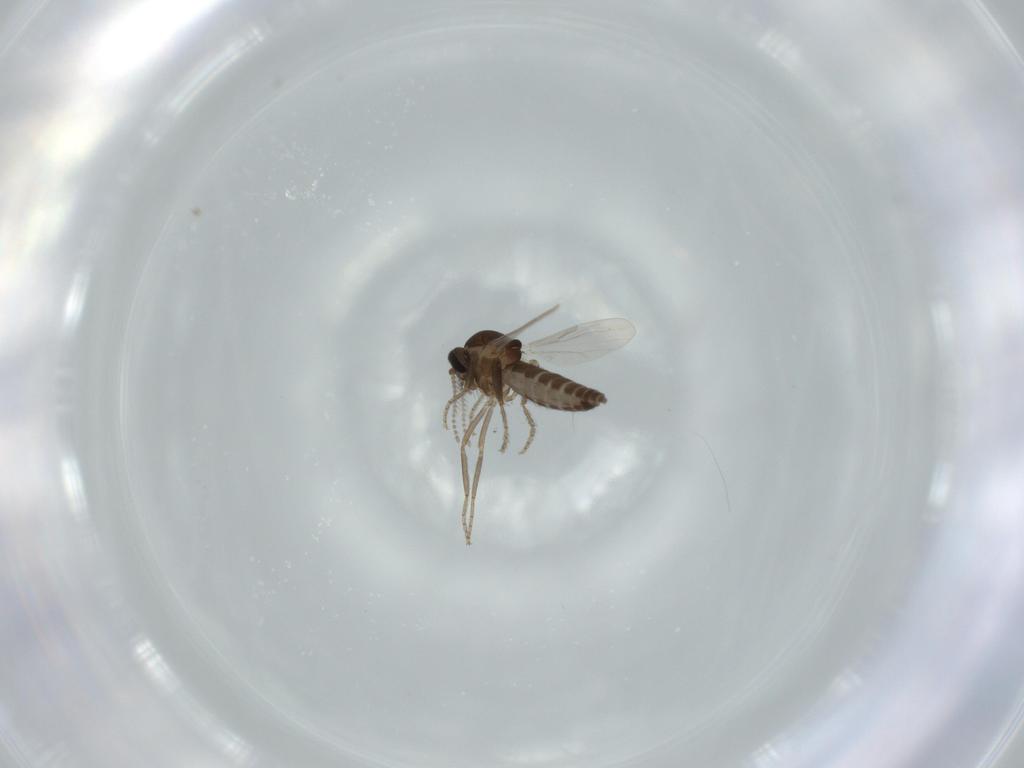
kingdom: Animalia
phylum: Arthropoda
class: Insecta
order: Diptera
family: Ceratopogonidae
